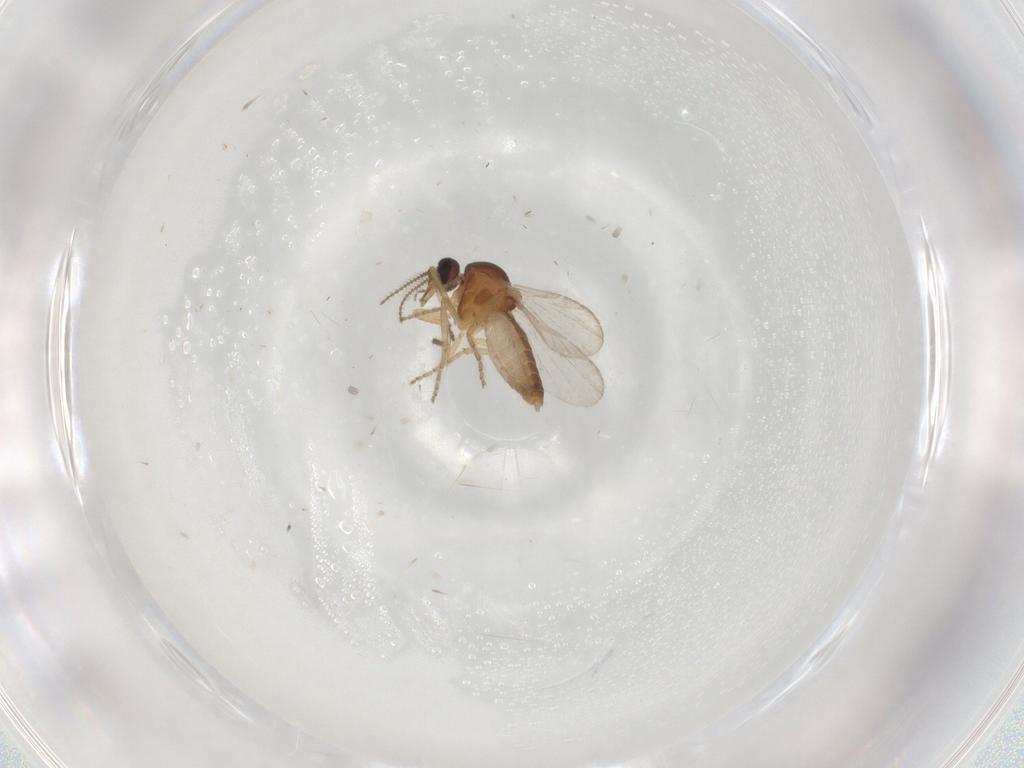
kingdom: Animalia
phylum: Arthropoda
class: Insecta
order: Diptera
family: Ceratopogonidae
